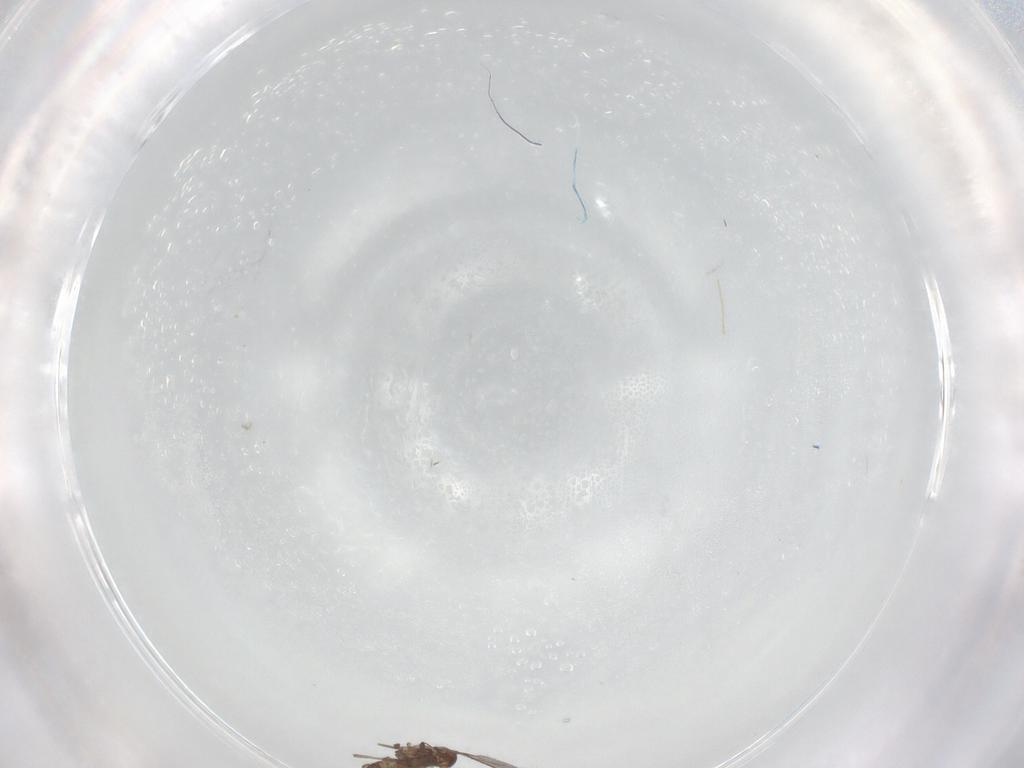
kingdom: Animalia
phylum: Arthropoda
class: Insecta
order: Diptera
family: Chironomidae
